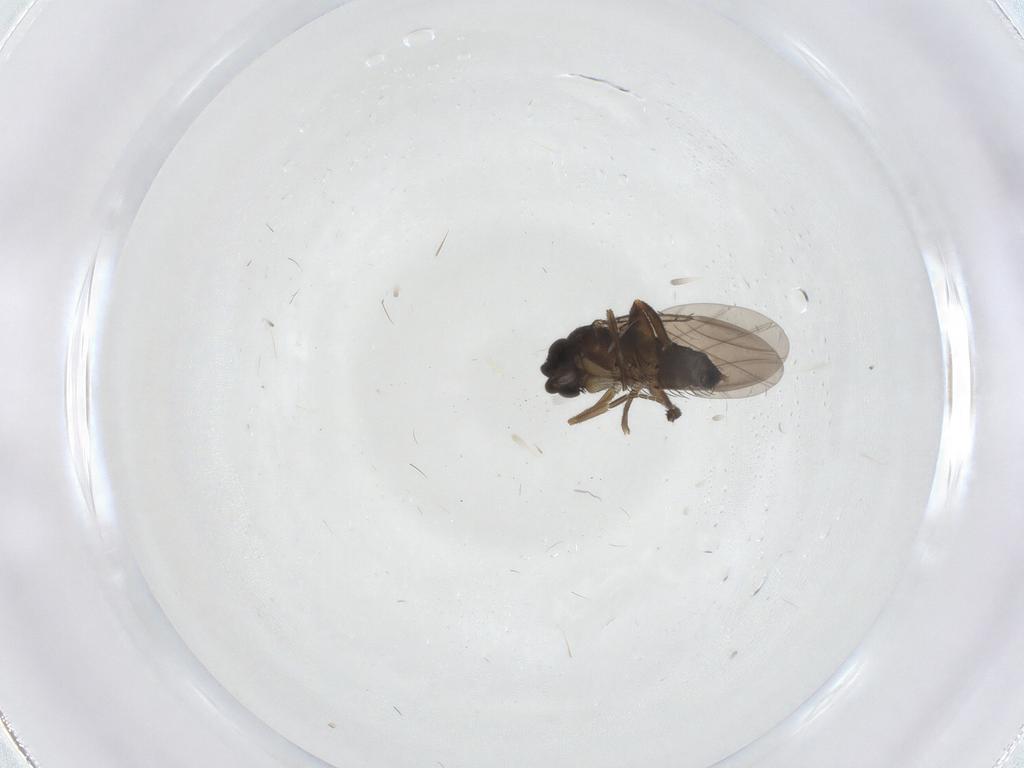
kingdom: Animalia
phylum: Arthropoda
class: Insecta
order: Diptera
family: Phoridae
